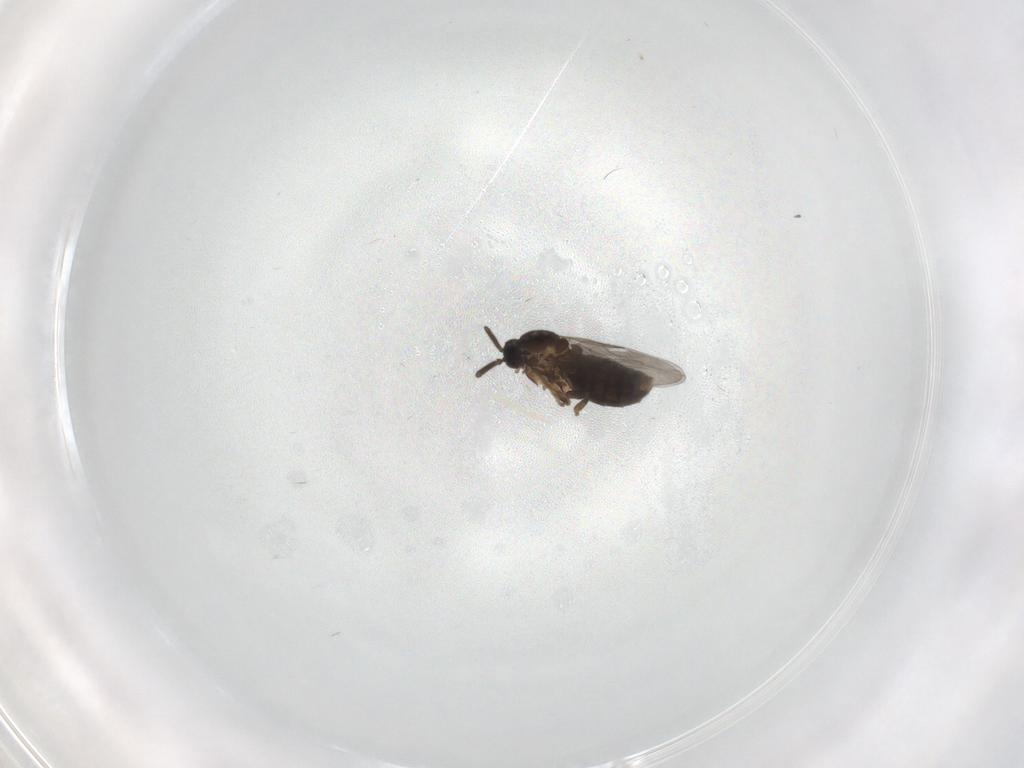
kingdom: Animalia
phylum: Arthropoda
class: Insecta
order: Diptera
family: Scatopsidae
